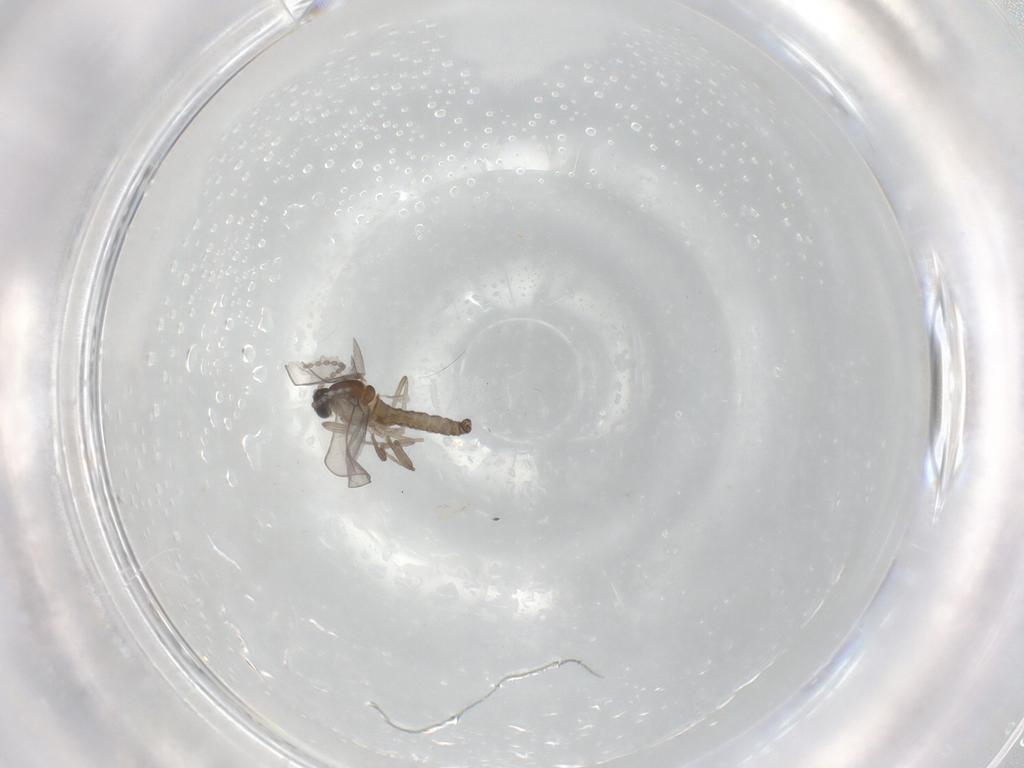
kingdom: Animalia
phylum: Arthropoda
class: Insecta
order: Diptera
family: Cecidomyiidae
